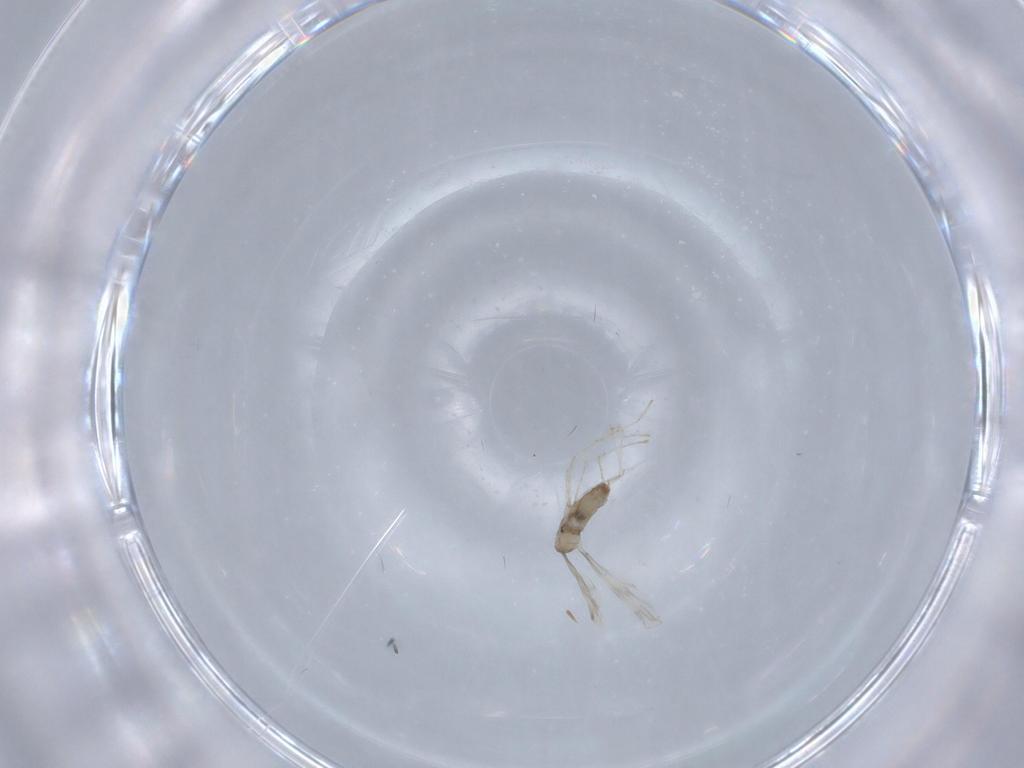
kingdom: Animalia
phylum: Arthropoda
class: Insecta
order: Diptera
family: Cecidomyiidae
